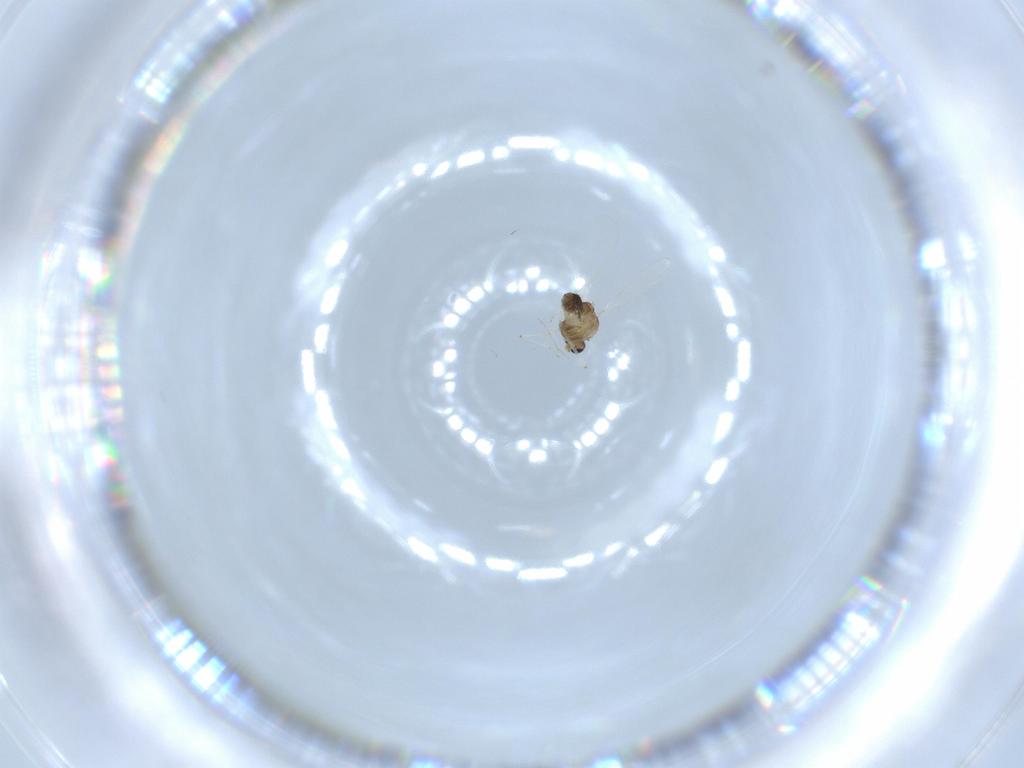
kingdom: Animalia
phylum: Arthropoda
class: Insecta
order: Diptera
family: Chironomidae
